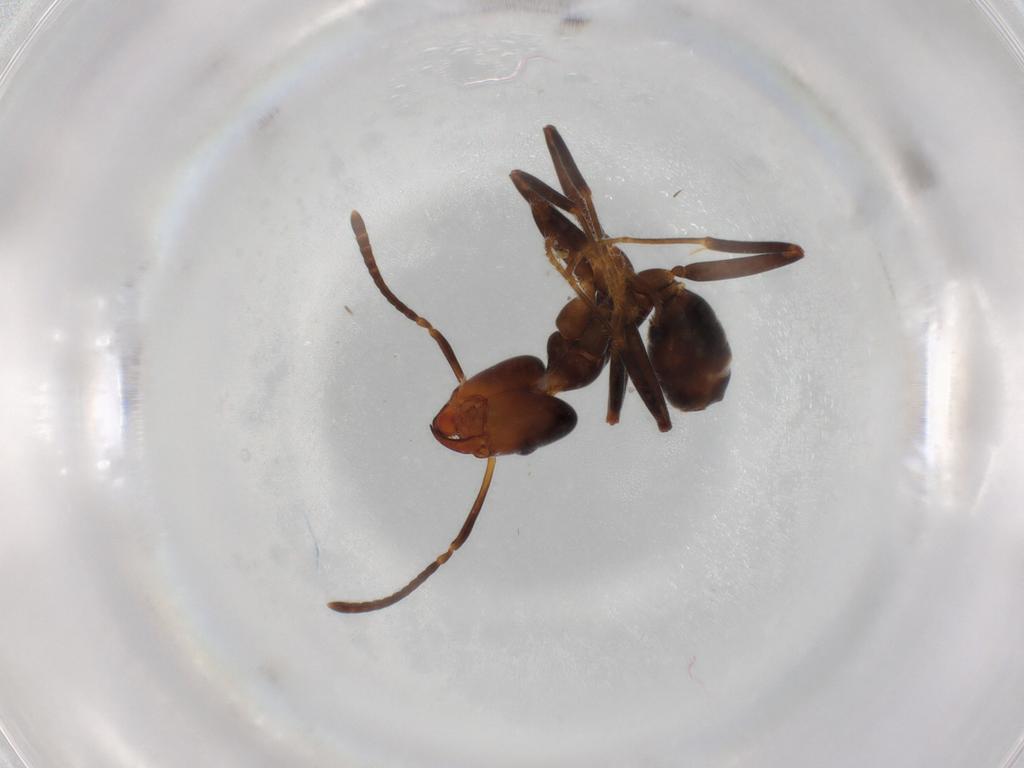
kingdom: Animalia
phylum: Arthropoda
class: Insecta
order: Hymenoptera
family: Formicidae
